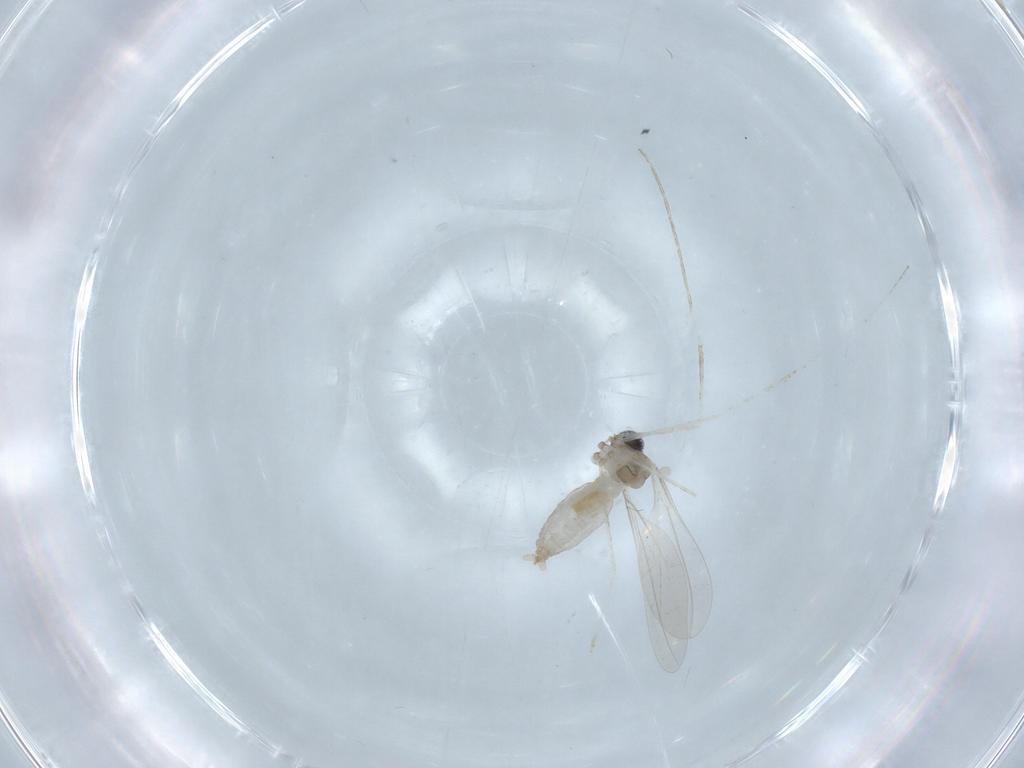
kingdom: Animalia
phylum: Arthropoda
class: Insecta
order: Diptera
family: Cecidomyiidae
